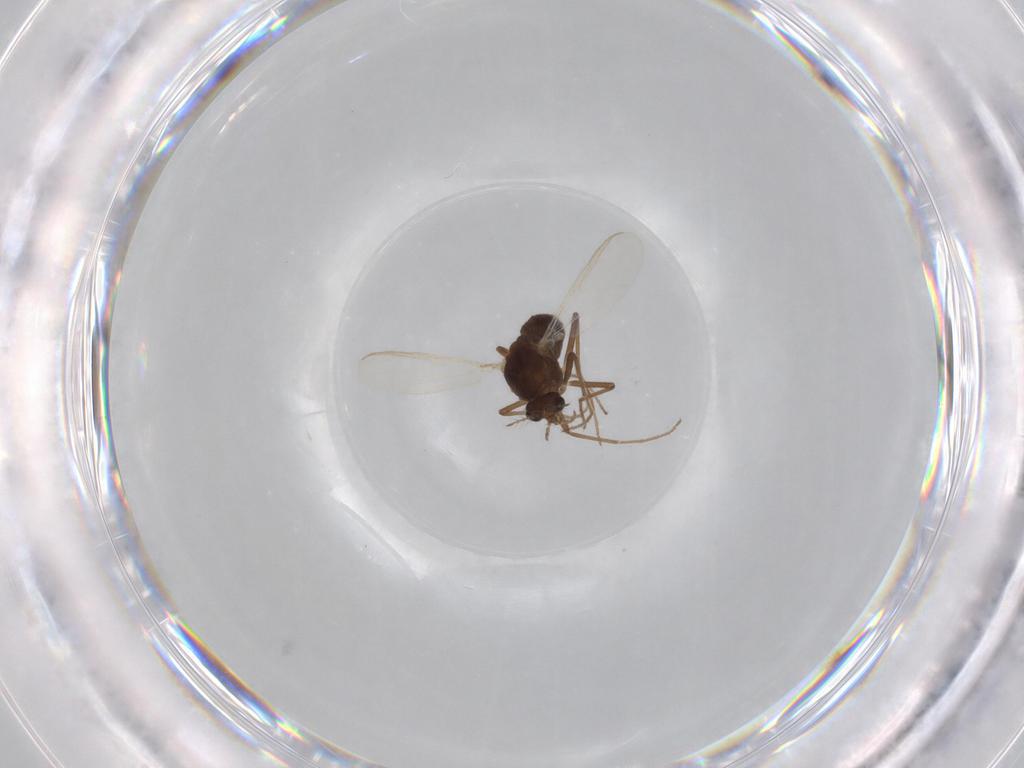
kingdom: Animalia
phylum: Arthropoda
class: Insecta
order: Diptera
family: Chironomidae
